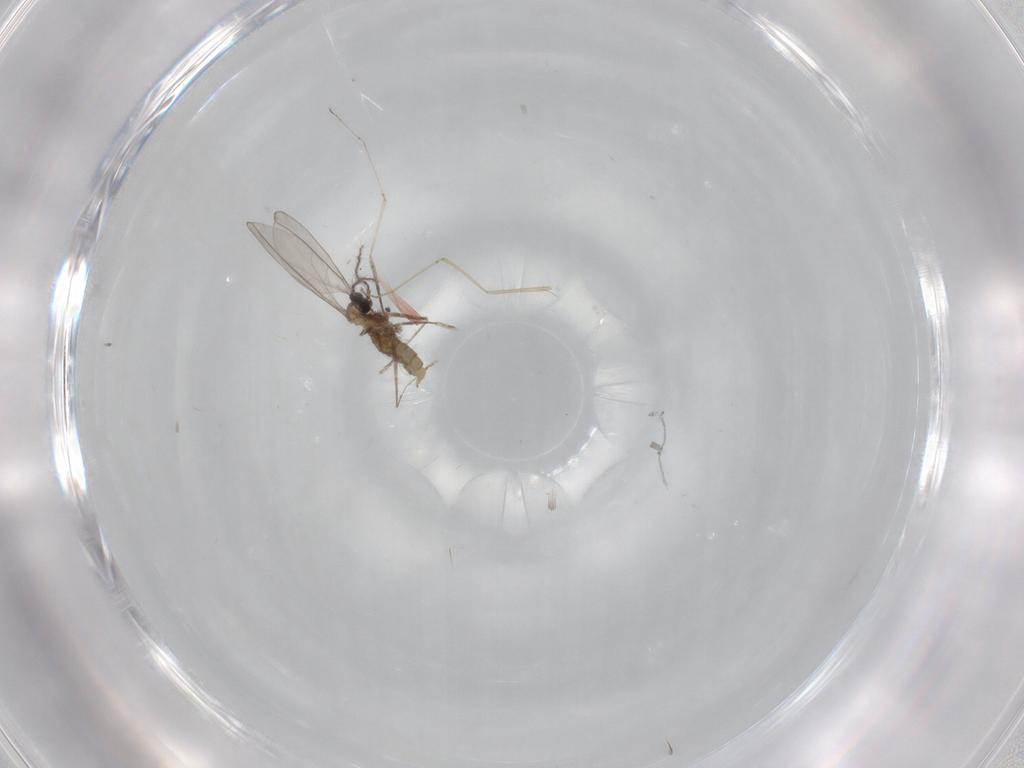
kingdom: Animalia
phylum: Arthropoda
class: Insecta
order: Diptera
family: Cecidomyiidae
